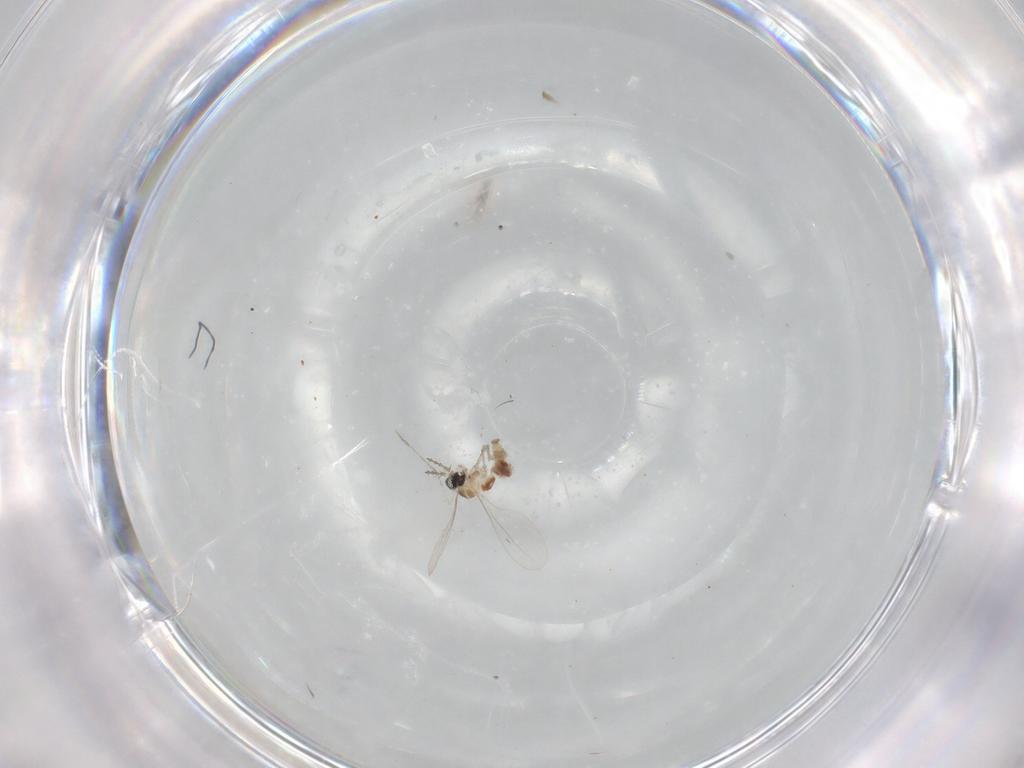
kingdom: Animalia
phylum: Arthropoda
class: Insecta
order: Diptera
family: Cecidomyiidae
